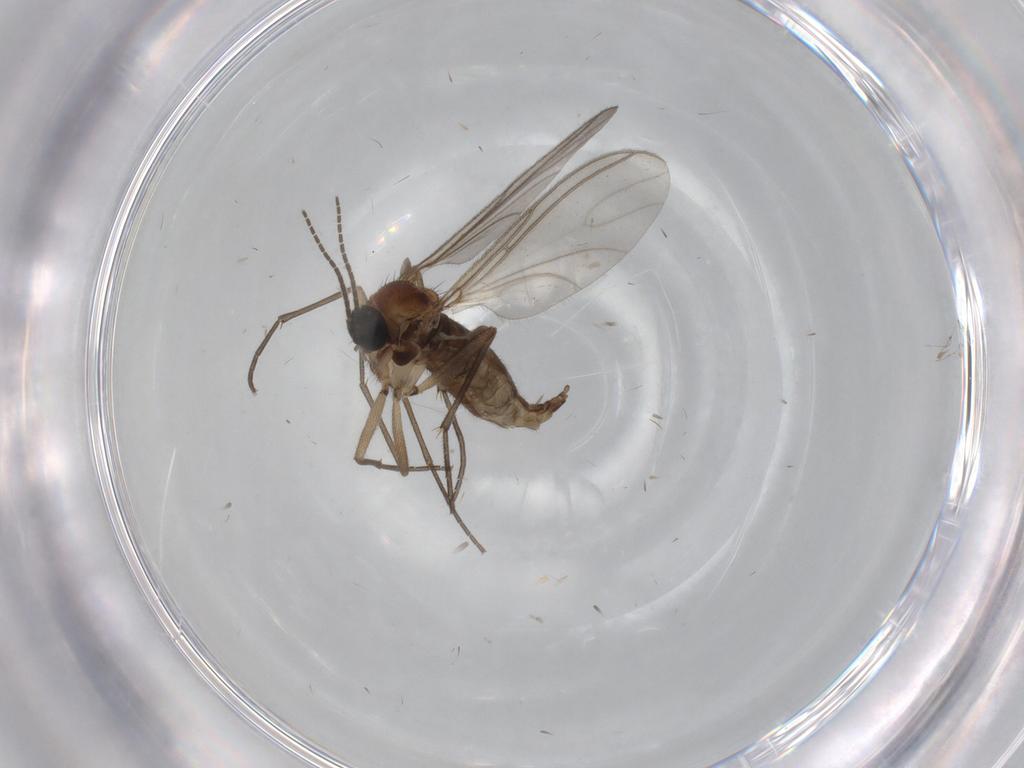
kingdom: Animalia
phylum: Arthropoda
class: Insecta
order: Diptera
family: Sciaridae
